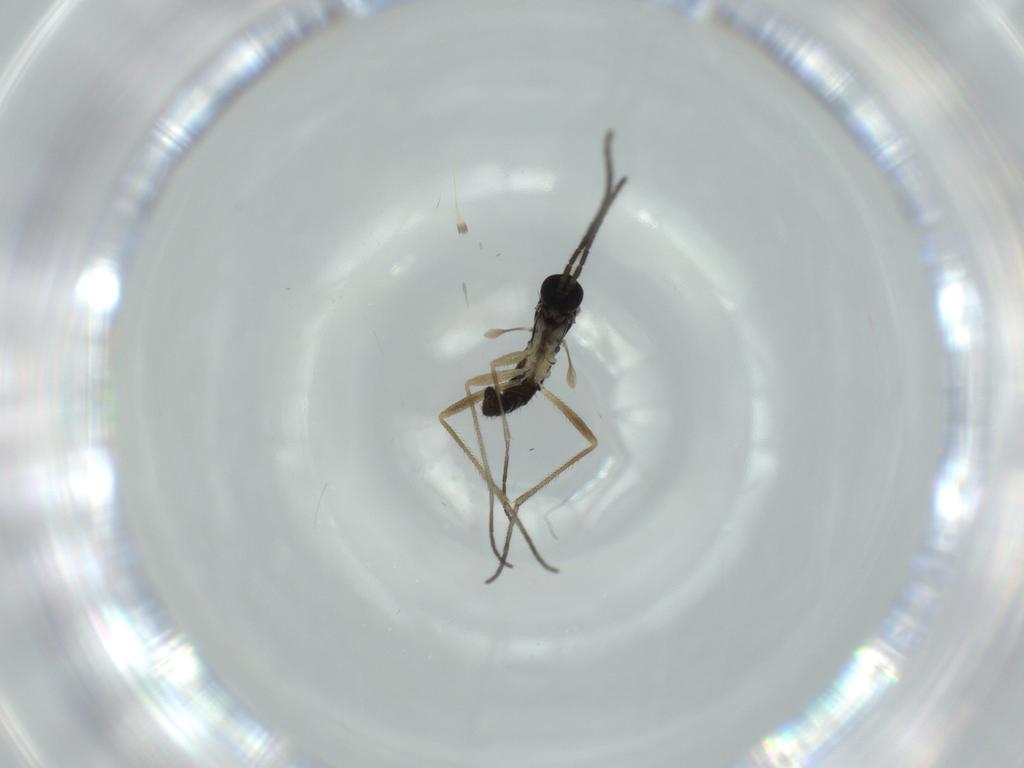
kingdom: Animalia
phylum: Arthropoda
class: Insecta
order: Diptera
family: Sciaridae
